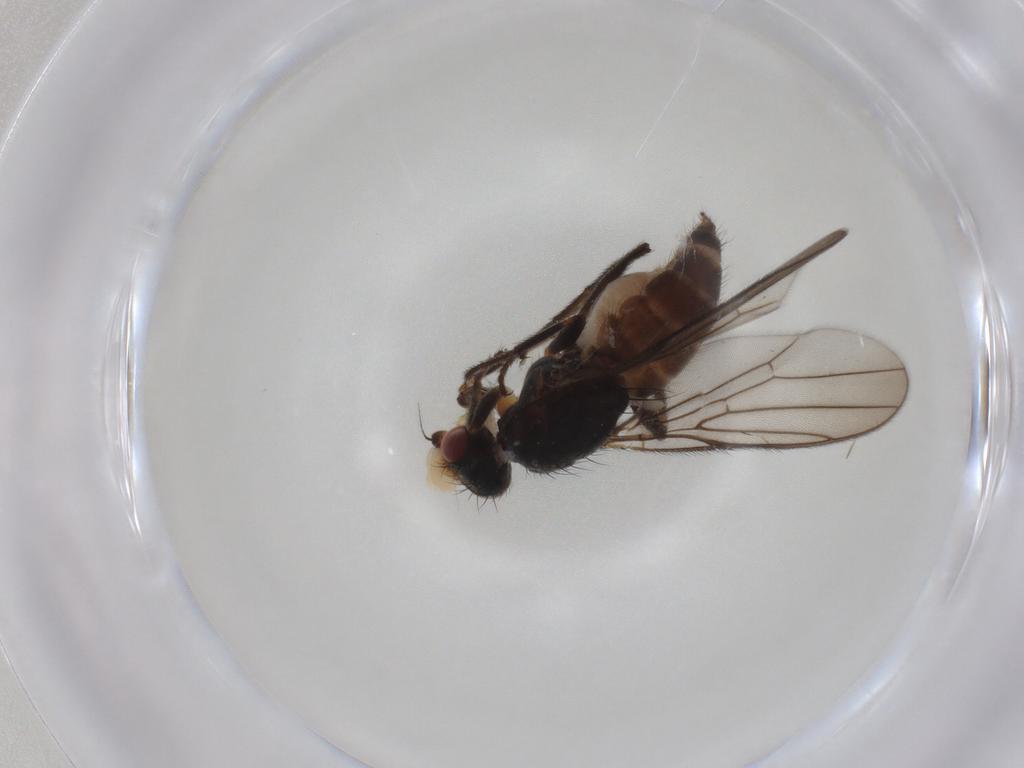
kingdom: Animalia
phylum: Arthropoda
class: Insecta
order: Diptera
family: Chloropidae
